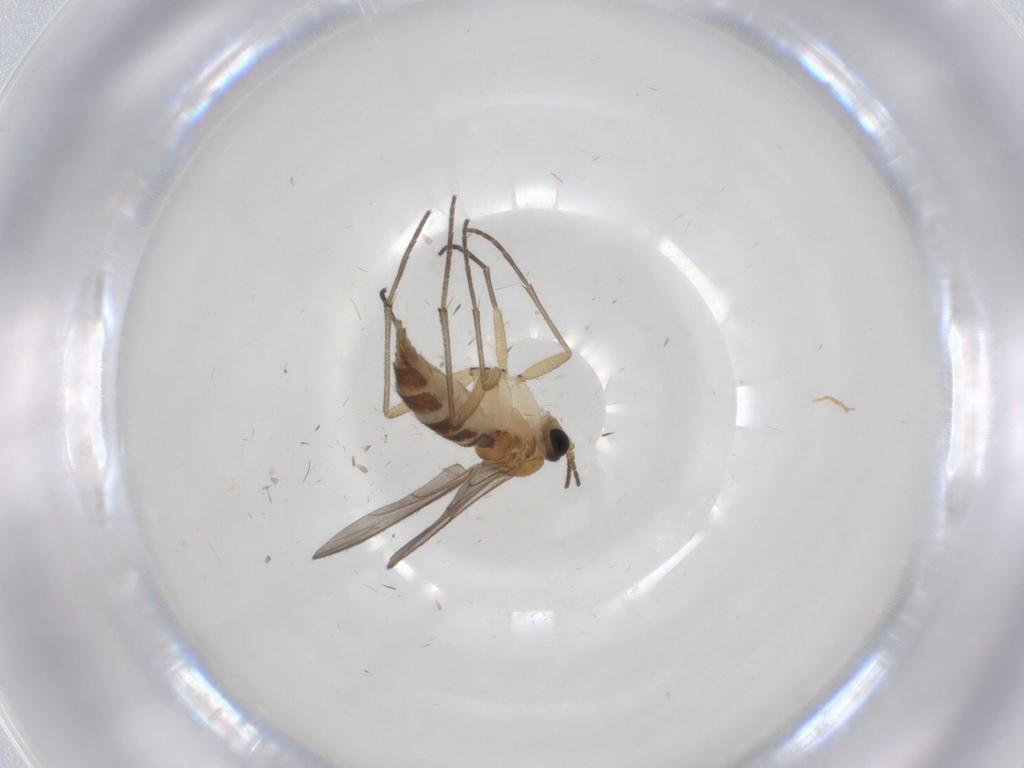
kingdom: Animalia
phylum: Arthropoda
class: Insecta
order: Diptera
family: Cecidomyiidae
